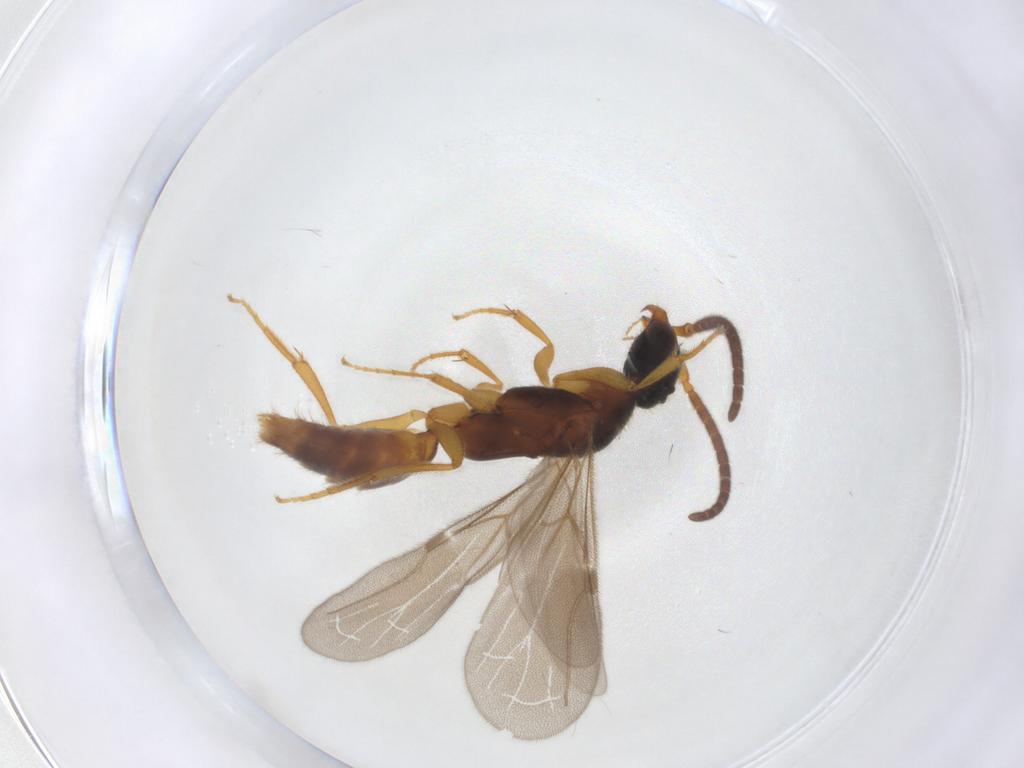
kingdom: Animalia
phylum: Arthropoda
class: Insecta
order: Hymenoptera
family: Bethylidae
